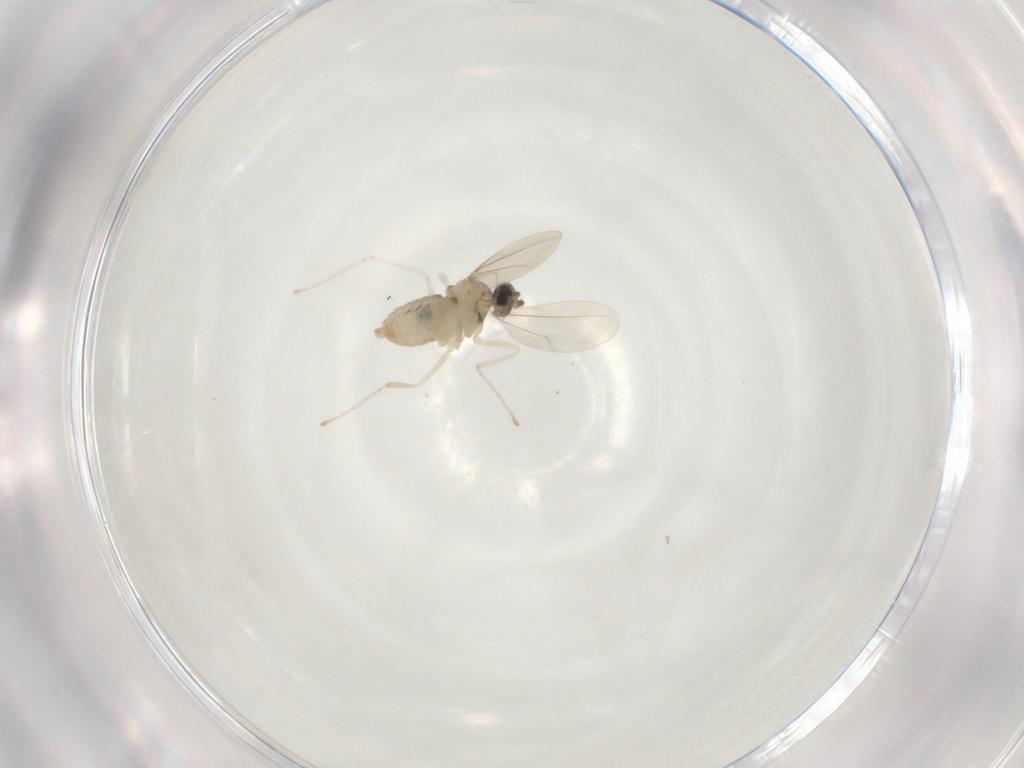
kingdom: Animalia
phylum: Arthropoda
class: Insecta
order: Diptera
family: Cecidomyiidae
